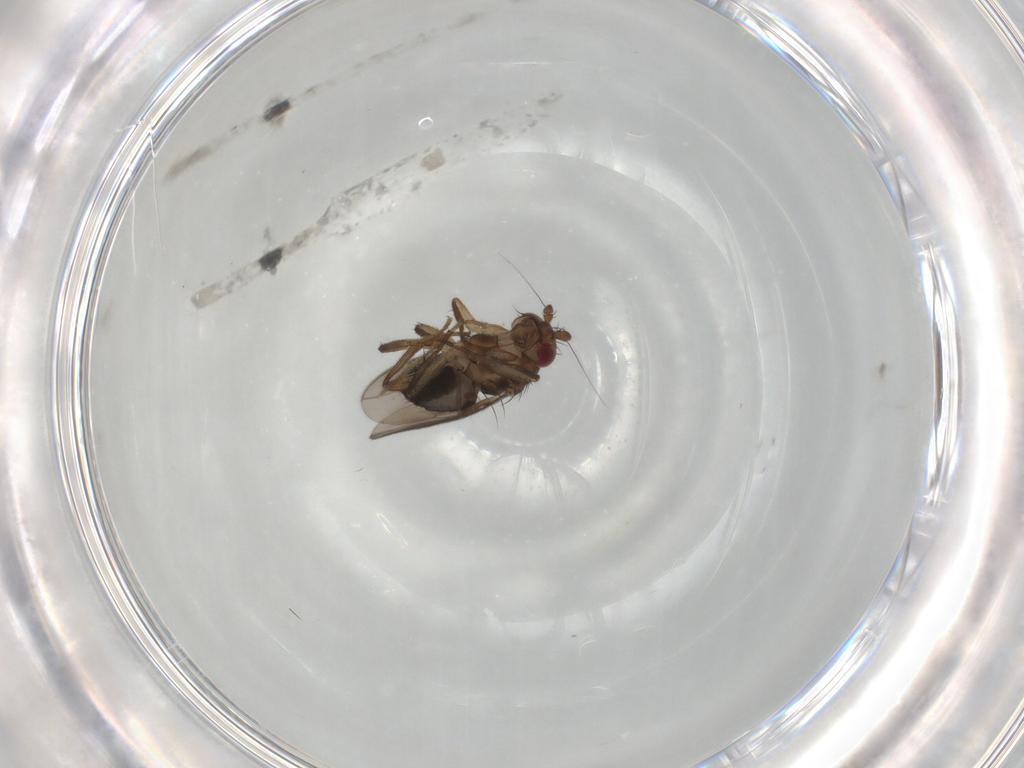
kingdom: Animalia
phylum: Arthropoda
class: Insecta
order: Diptera
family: Sphaeroceridae
